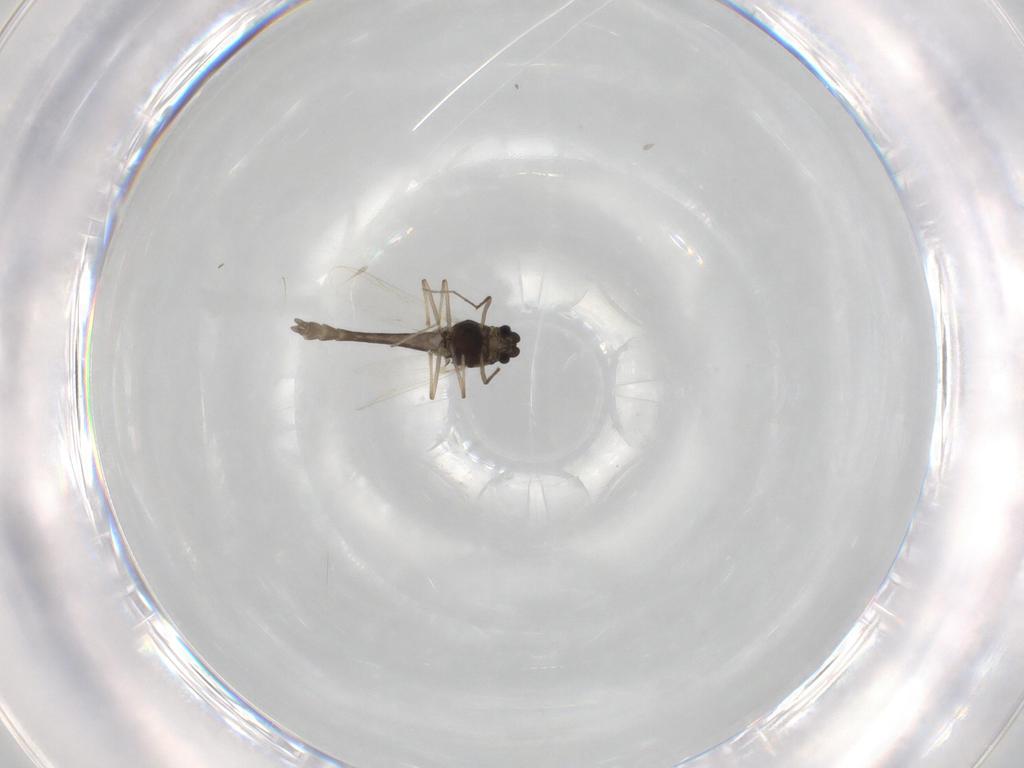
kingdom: Animalia
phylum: Arthropoda
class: Insecta
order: Diptera
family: Chironomidae
